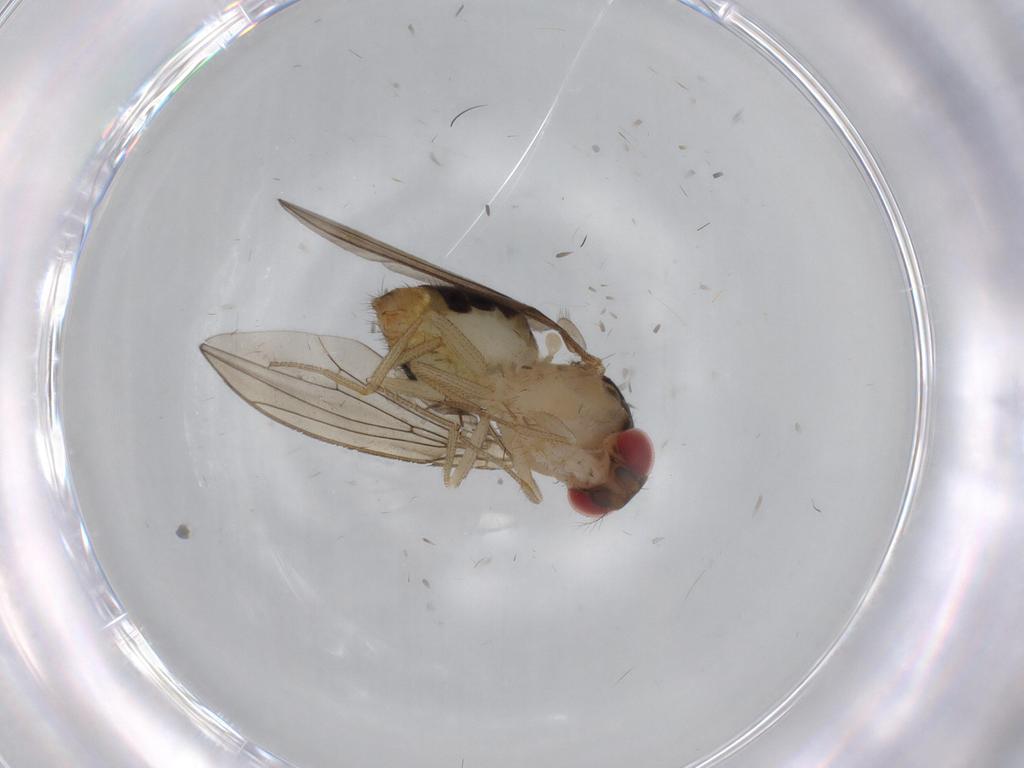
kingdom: Animalia
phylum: Arthropoda
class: Insecta
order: Diptera
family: Drosophilidae
